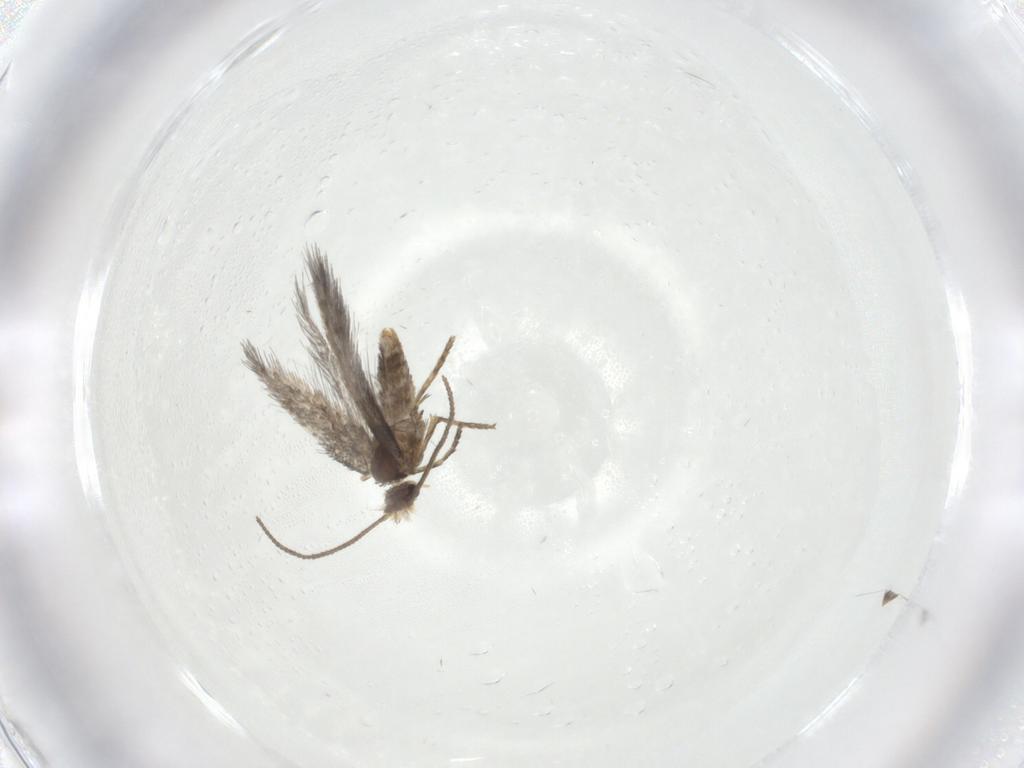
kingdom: Animalia
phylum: Arthropoda
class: Insecta
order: Lepidoptera
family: Nepticulidae
